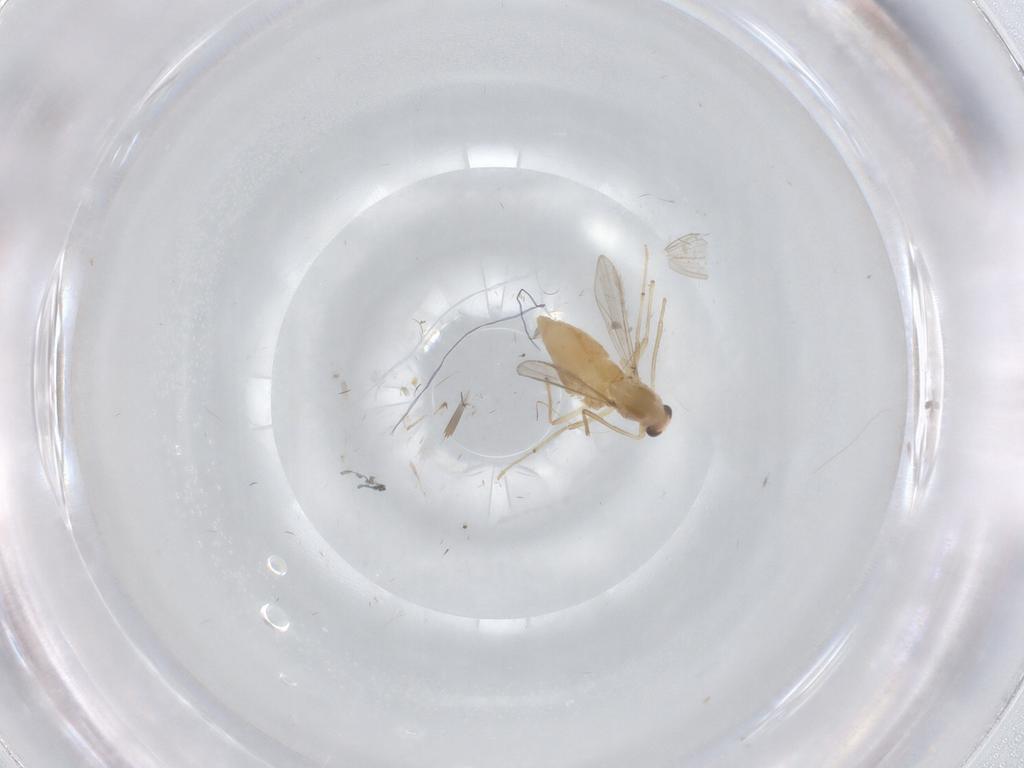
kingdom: Animalia
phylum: Arthropoda
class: Insecta
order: Diptera
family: Chironomidae
